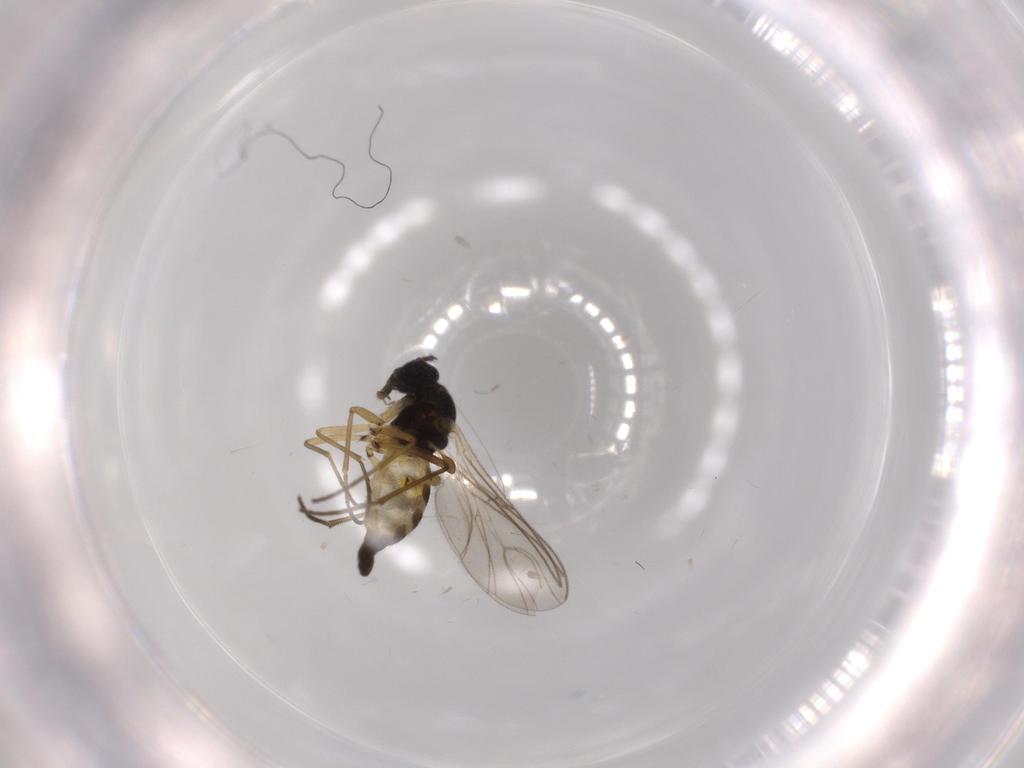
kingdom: Animalia
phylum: Arthropoda
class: Insecta
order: Diptera
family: Sciaridae
